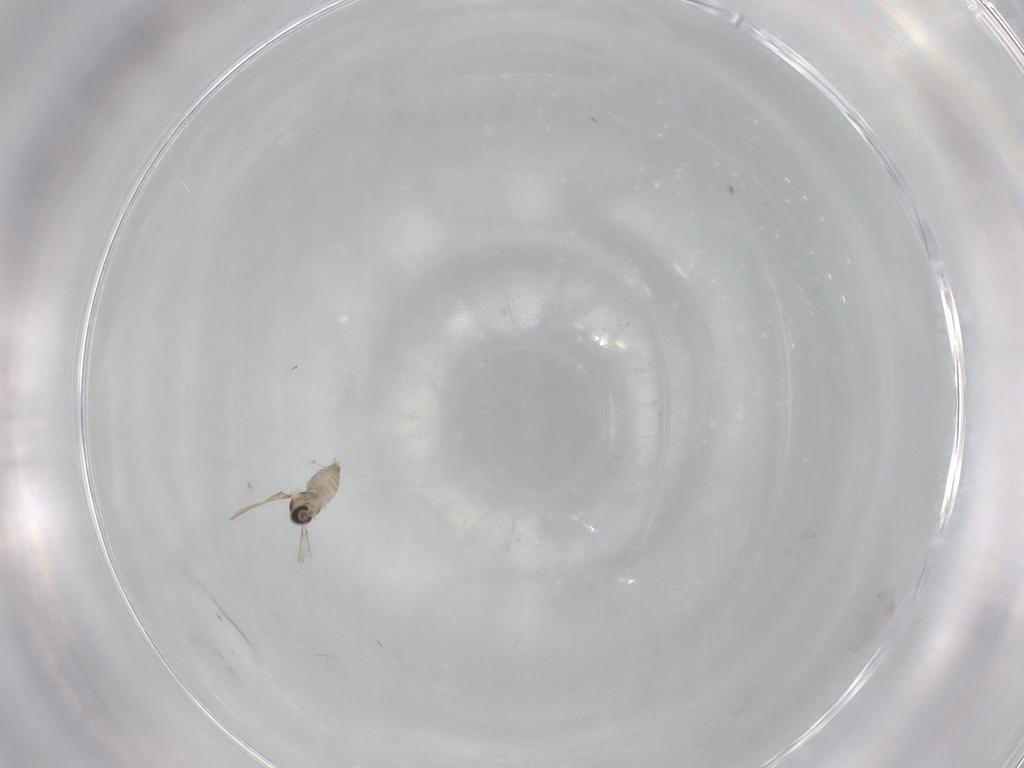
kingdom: Animalia
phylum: Arthropoda
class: Insecta
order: Diptera
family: Cecidomyiidae
